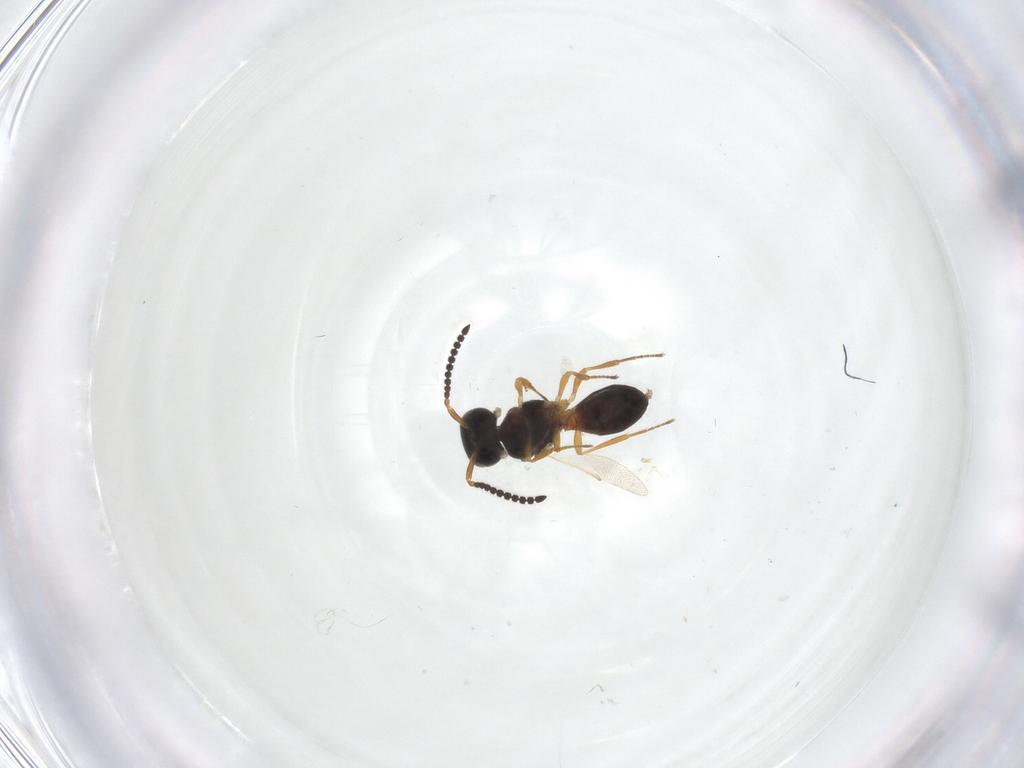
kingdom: Animalia
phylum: Arthropoda
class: Insecta
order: Hymenoptera
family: Scelionidae
